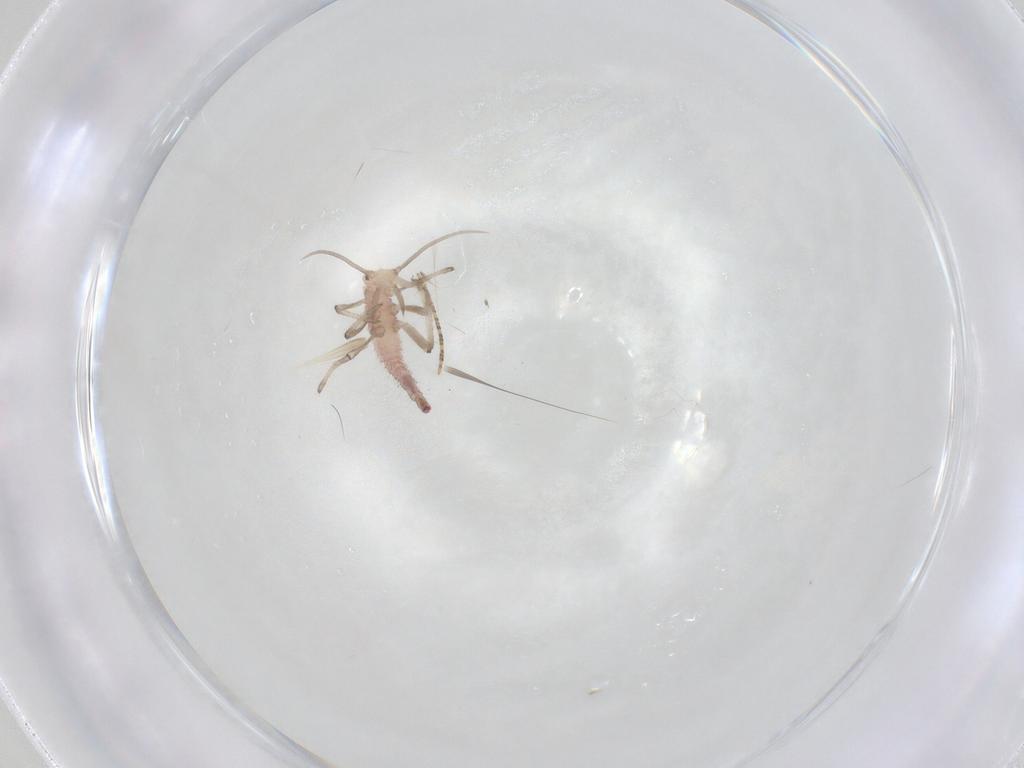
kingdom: Animalia
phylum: Arthropoda
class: Insecta
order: Neuroptera
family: Hemerobiidae
